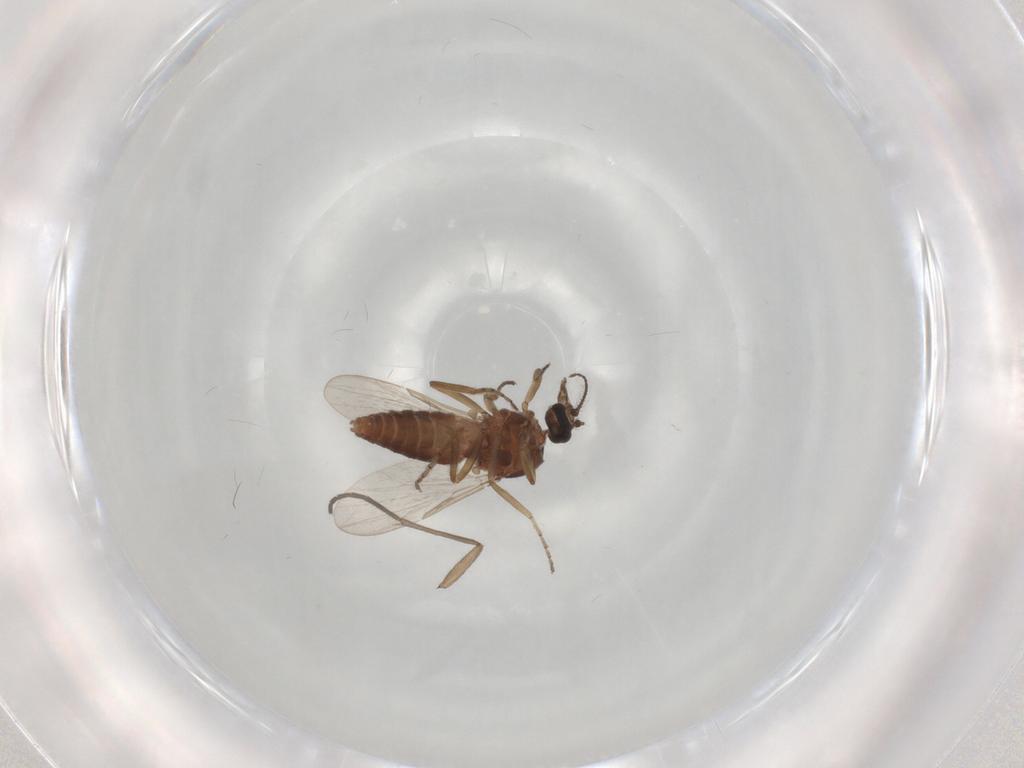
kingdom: Animalia
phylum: Arthropoda
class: Insecta
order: Diptera
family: Ceratopogonidae
